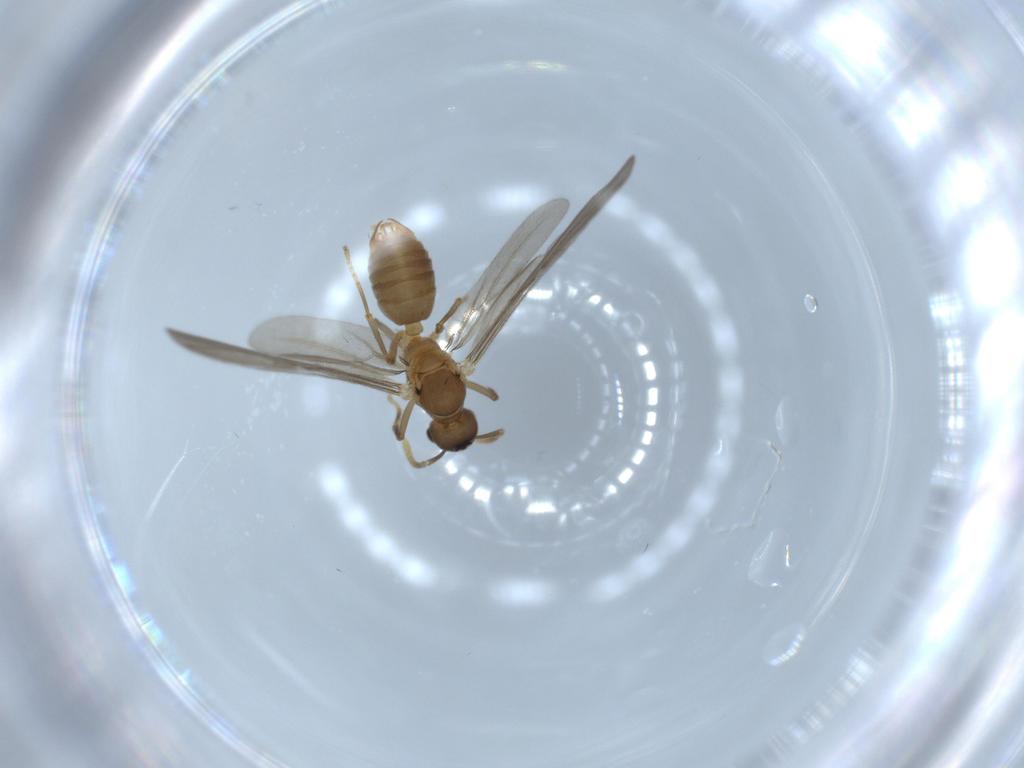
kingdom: Animalia
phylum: Arthropoda
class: Insecta
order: Hymenoptera
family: Formicidae
